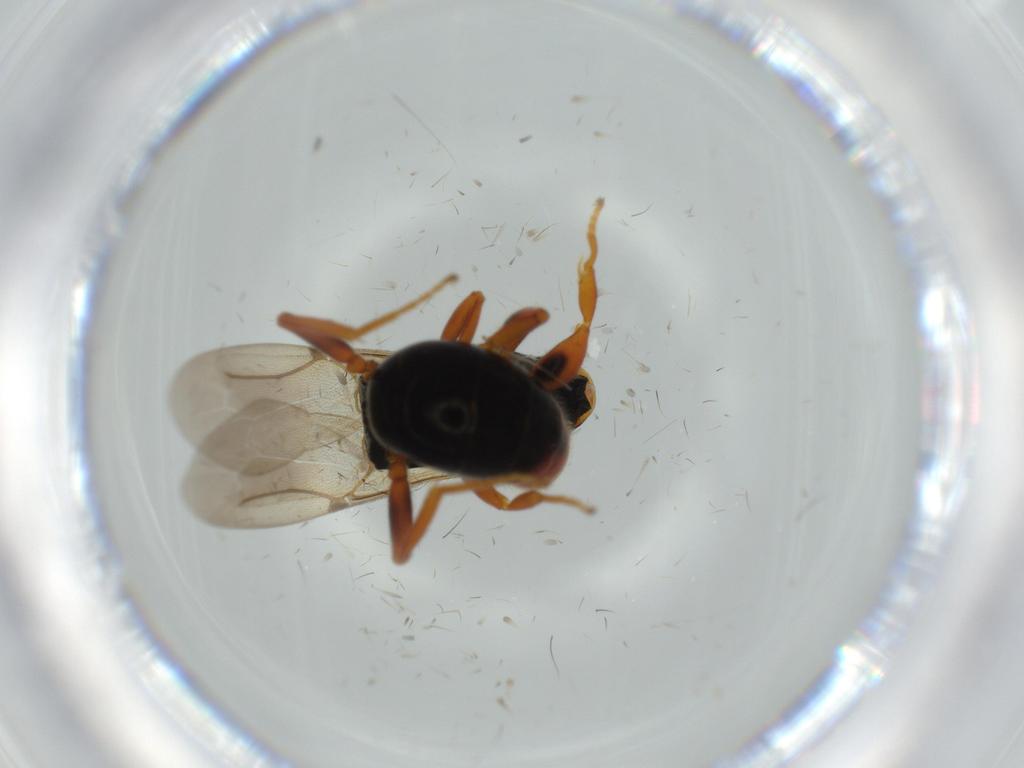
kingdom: Animalia
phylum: Arthropoda
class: Insecta
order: Hymenoptera
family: Bethylidae
